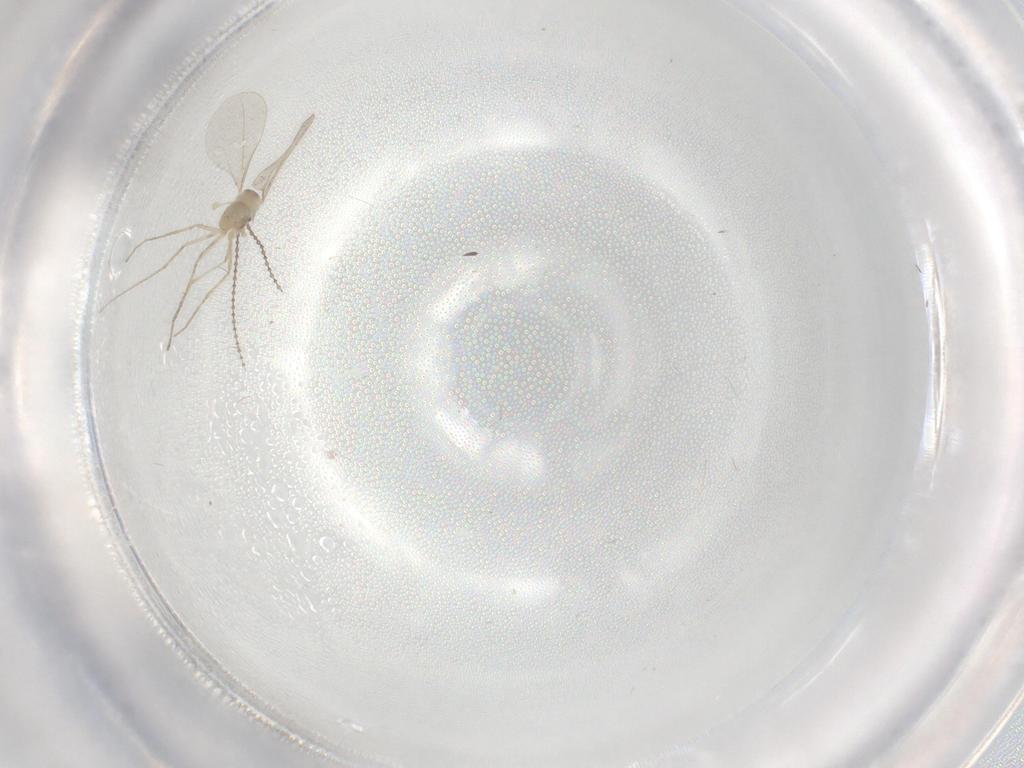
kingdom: Animalia
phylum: Arthropoda
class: Insecta
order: Diptera
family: Cecidomyiidae
